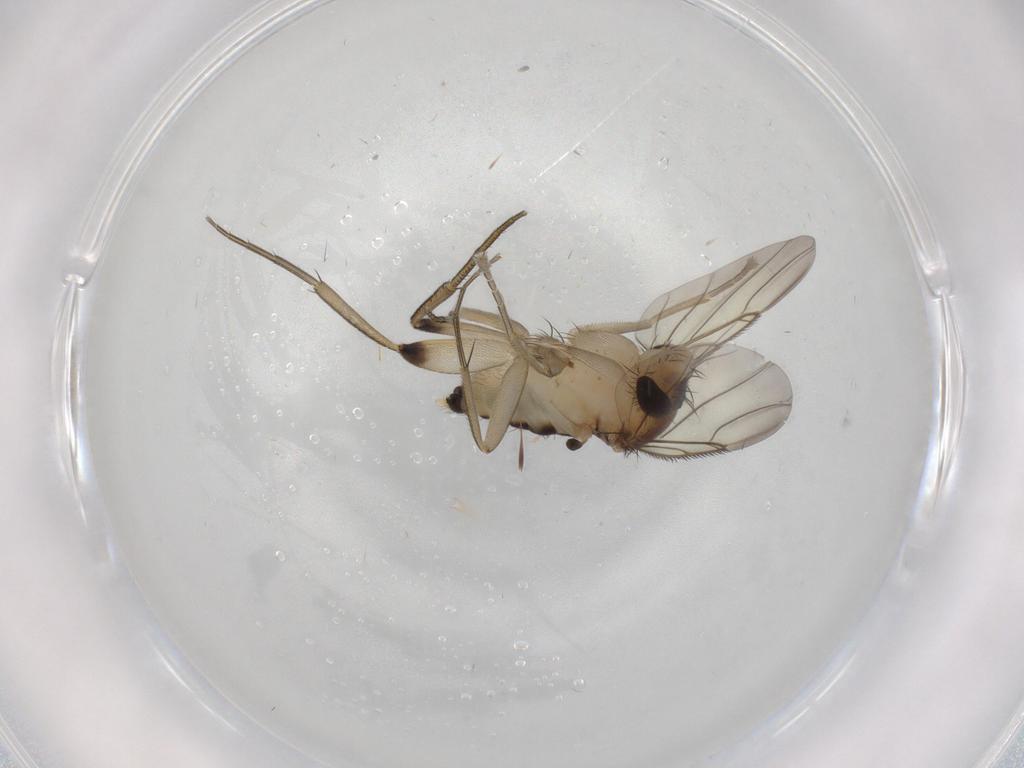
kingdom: Animalia
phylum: Arthropoda
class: Insecta
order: Diptera
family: Phoridae
